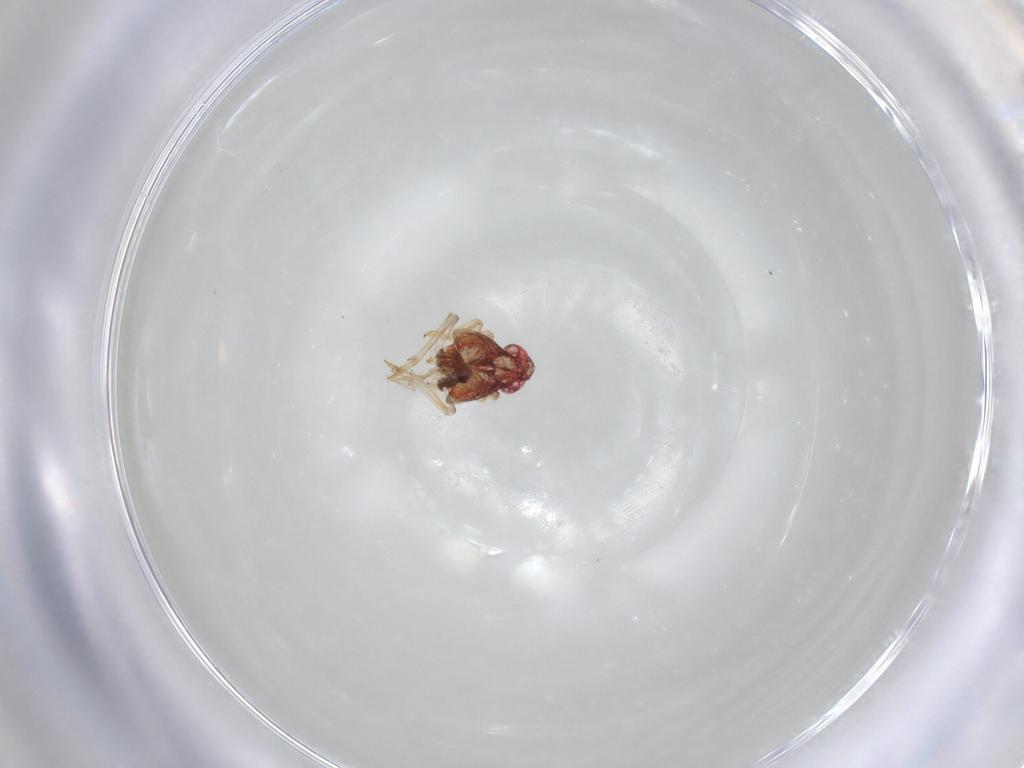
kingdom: Animalia
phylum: Arthropoda
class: Insecta
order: Hemiptera
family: Issidae
